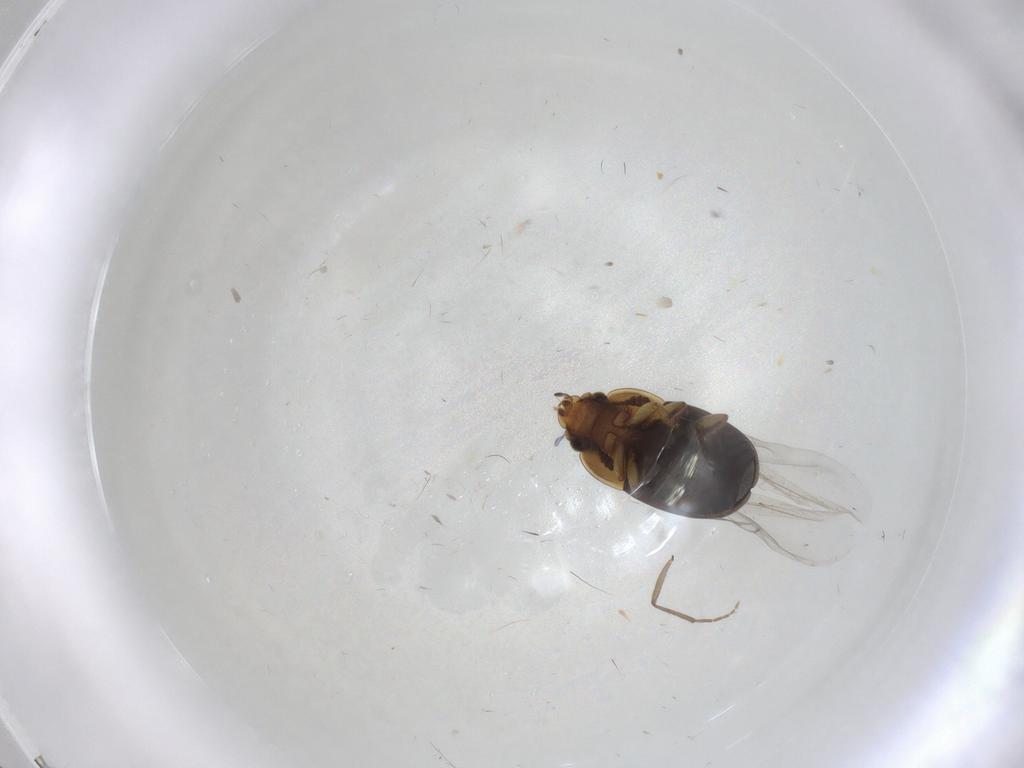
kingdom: Animalia
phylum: Arthropoda
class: Insecta
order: Coleoptera
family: Nitidulidae
